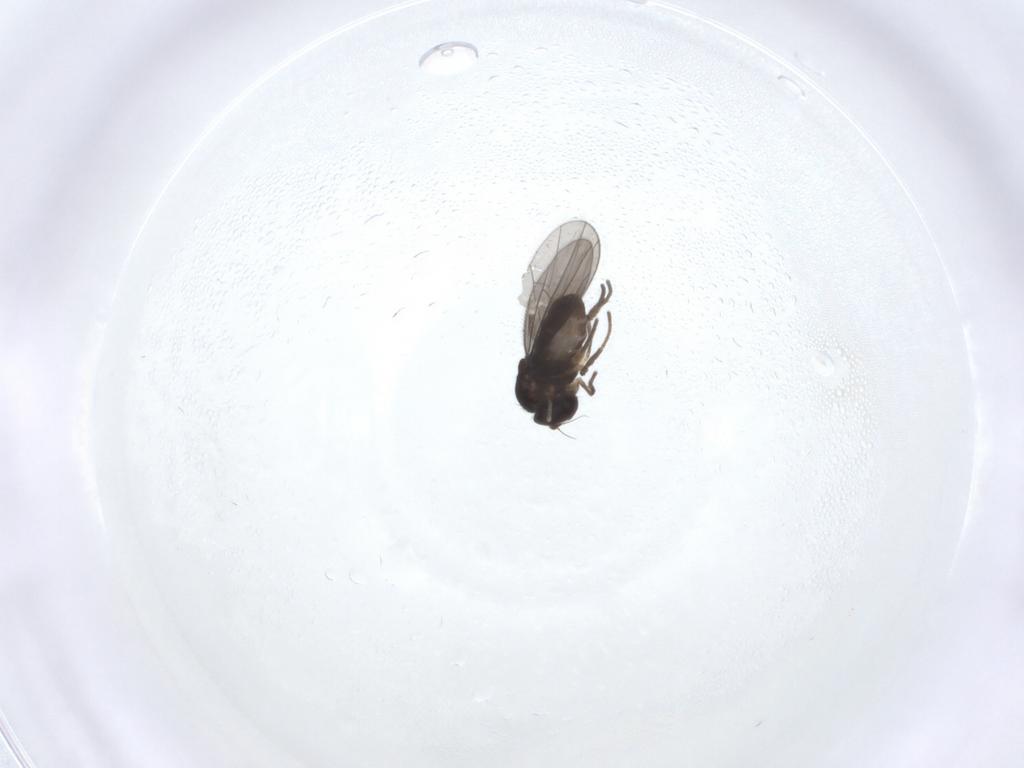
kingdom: Animalia
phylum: Arthropoda
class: Insecta
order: Diptera
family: Dolichopodidae
